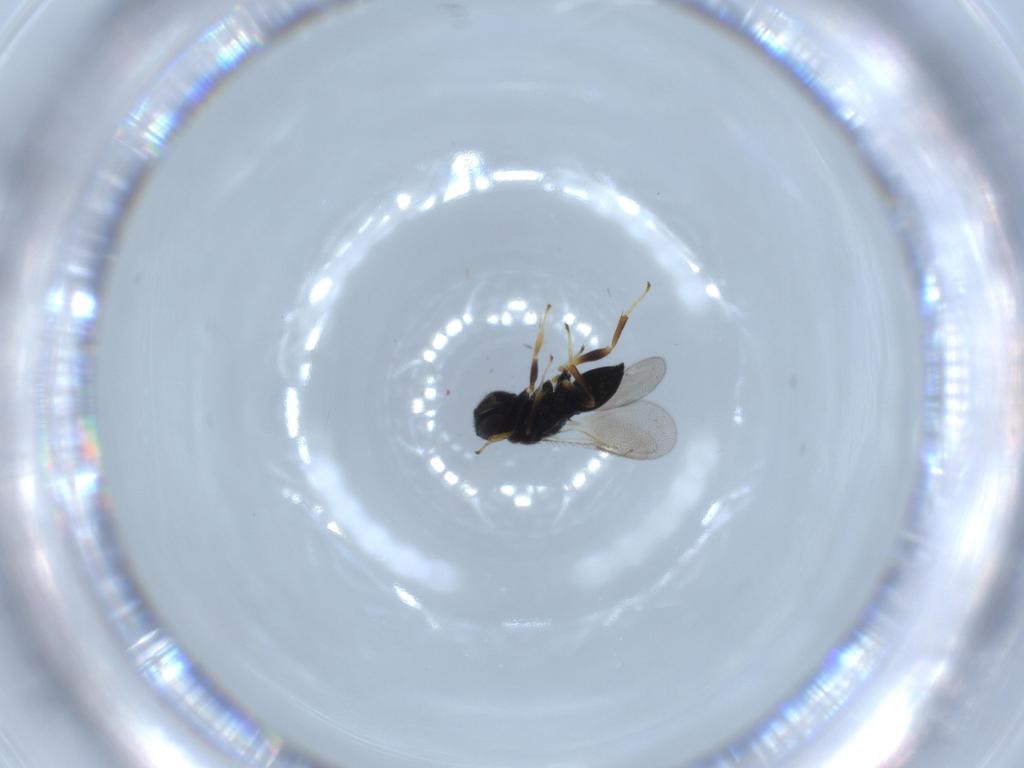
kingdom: Animalia
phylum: Arthropoda
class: Insecta
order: Hymenoptera
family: Pteromalidae
